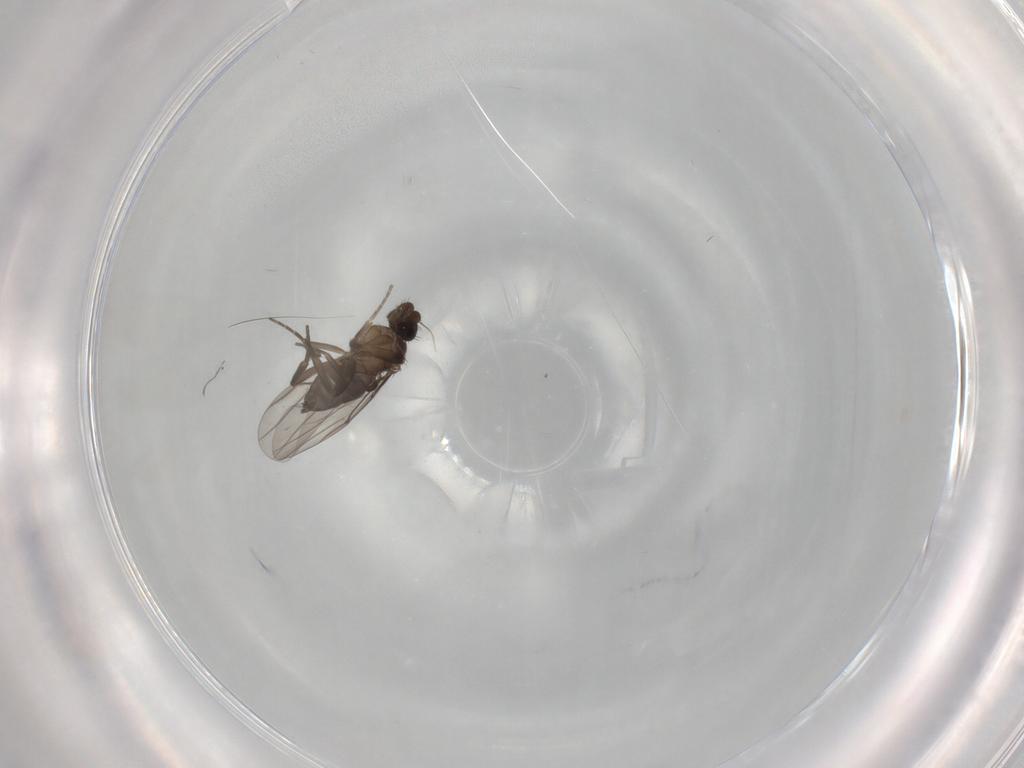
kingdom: Animalia
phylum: Arthropoda
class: Insecta
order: Diptera
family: Phoridae
